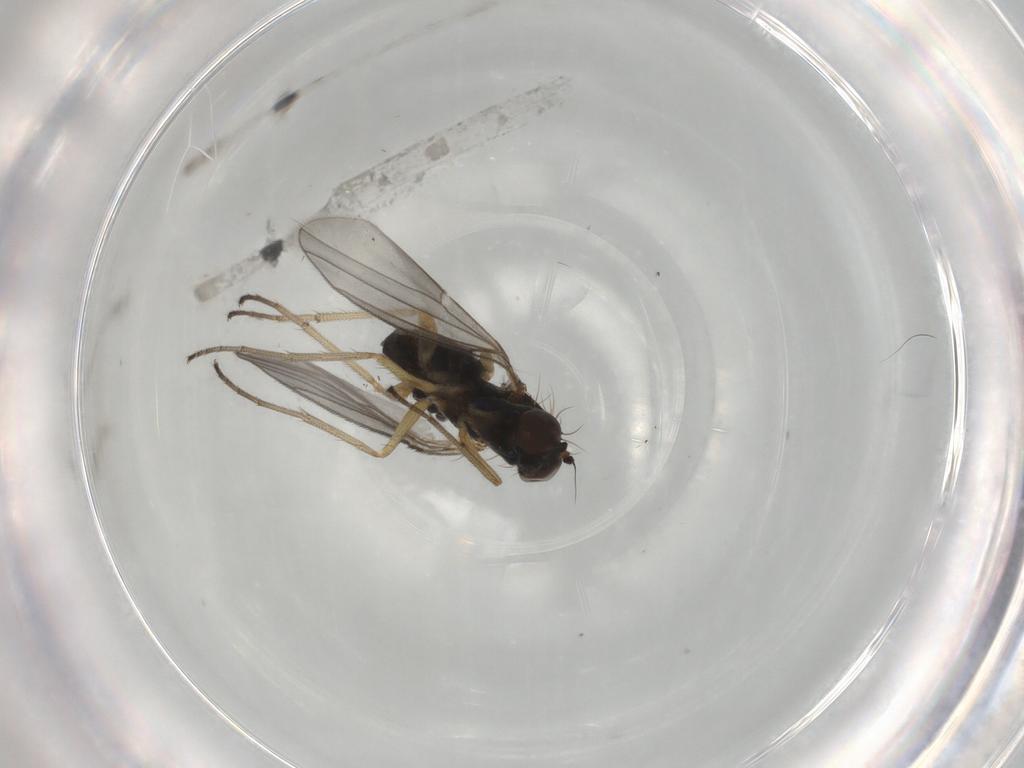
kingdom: Animalia
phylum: Arthropoda
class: Insecta
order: Diptera
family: Dolichopodidae
